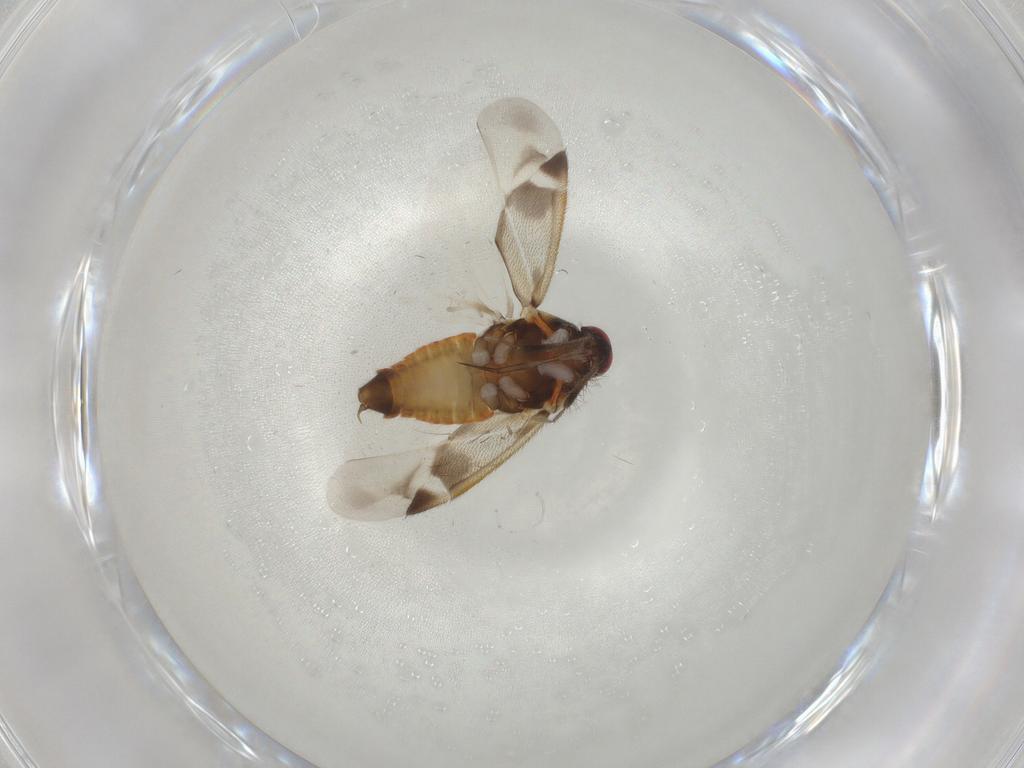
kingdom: Animalia
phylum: Arthropoda
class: Insecta
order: Hemiptera
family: Miridae
